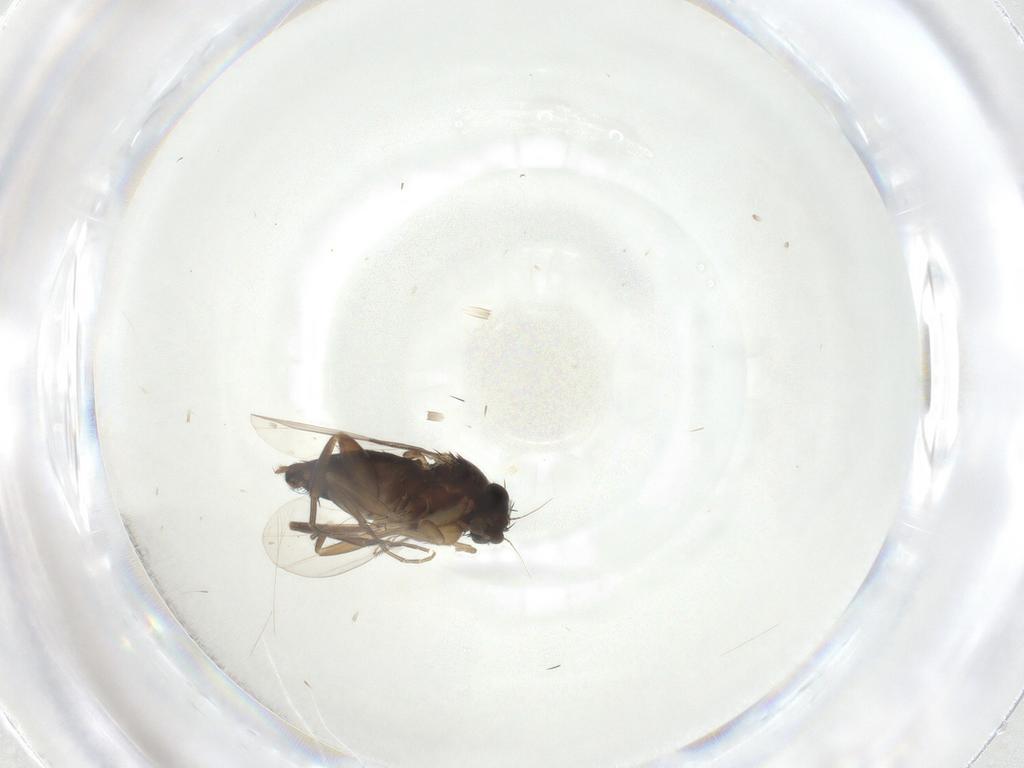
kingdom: Animalia
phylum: Arthropoda
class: Insecta
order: Diptera
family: Phoridae
